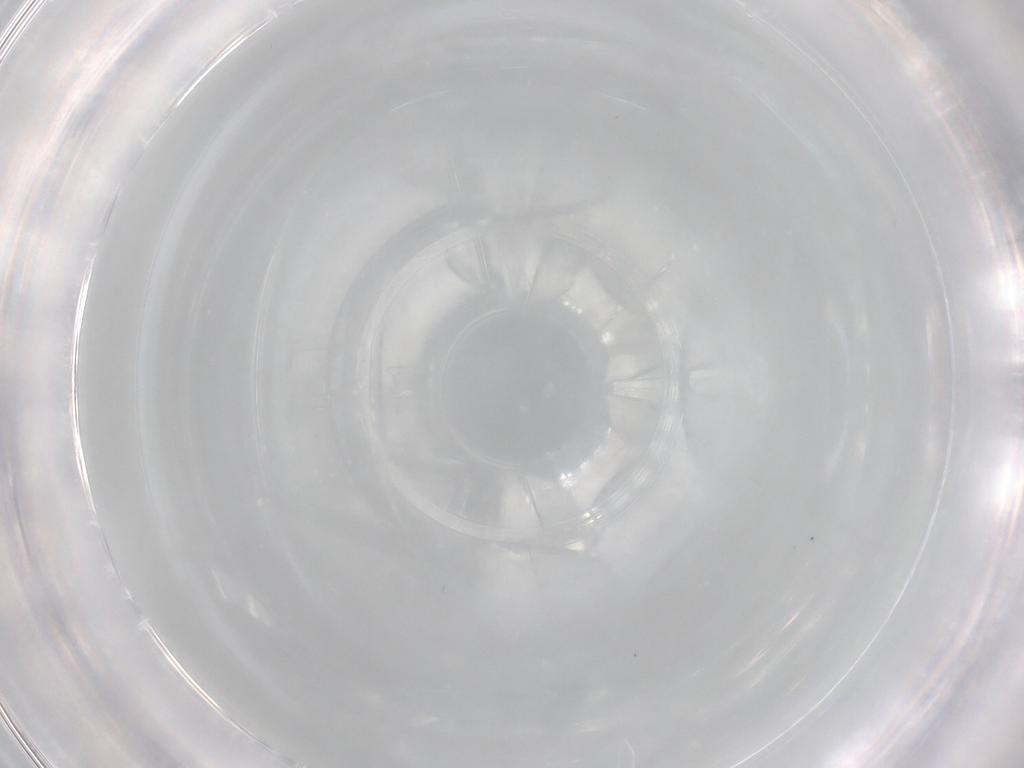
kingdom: Animalia
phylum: Arthropoda
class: Insecta
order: Diptera
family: Cecidomyiidae
